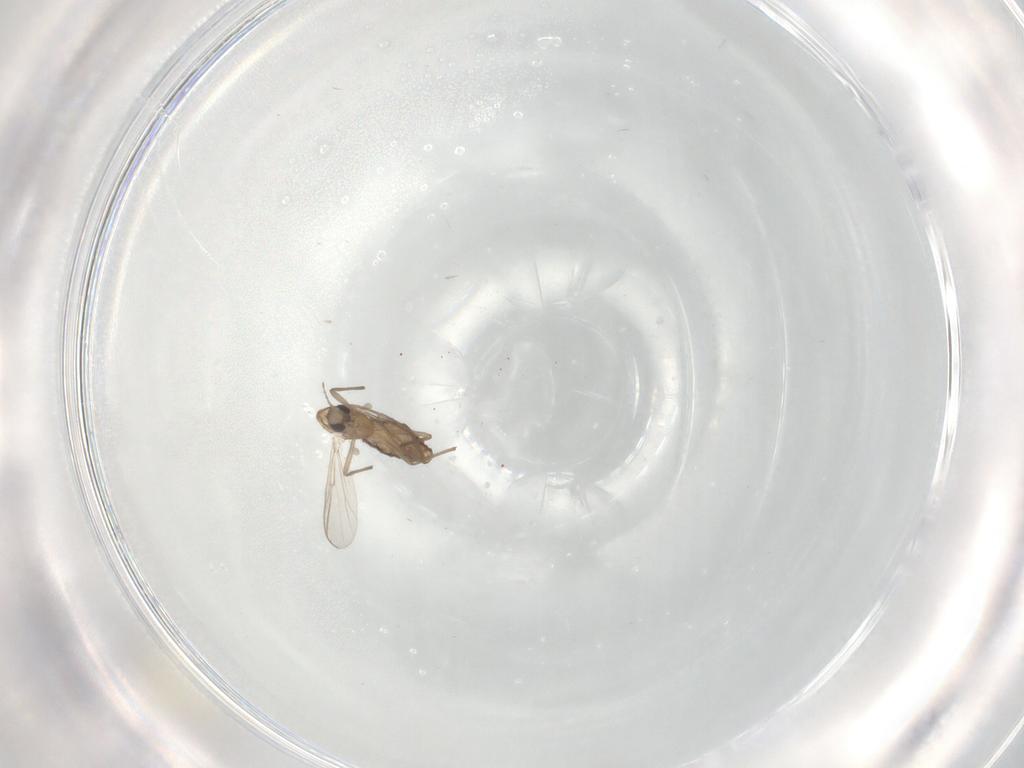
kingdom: Animalia
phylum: Arthropoda
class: Insecta
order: Diptera
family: Chironomidae
